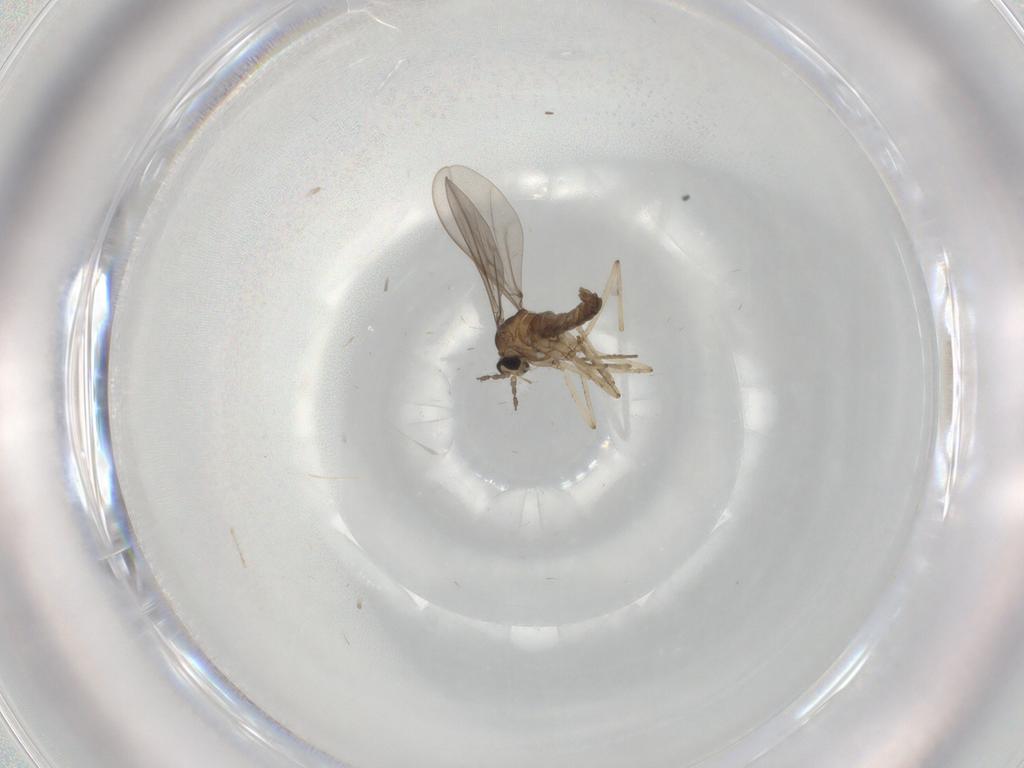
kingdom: Animalia
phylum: Arthropoda
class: Insecta
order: Diptera
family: Cecidomyiidae
